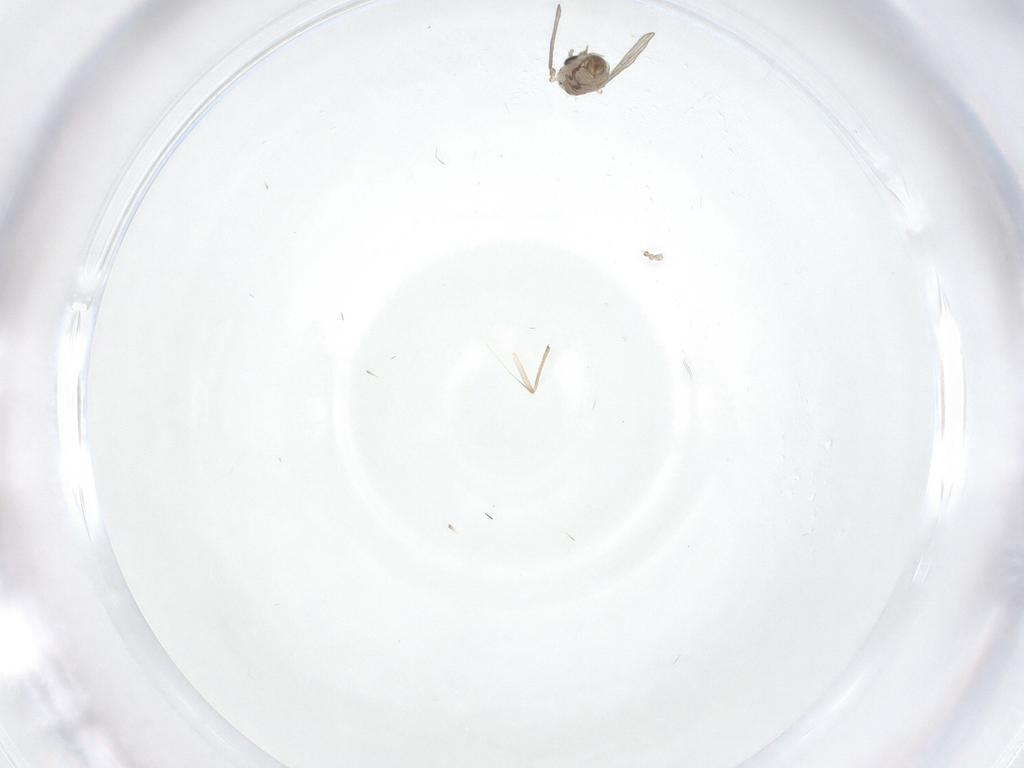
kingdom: Animalia
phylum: Arthropoda
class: Insecta
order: Diptera
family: Psychodidae
